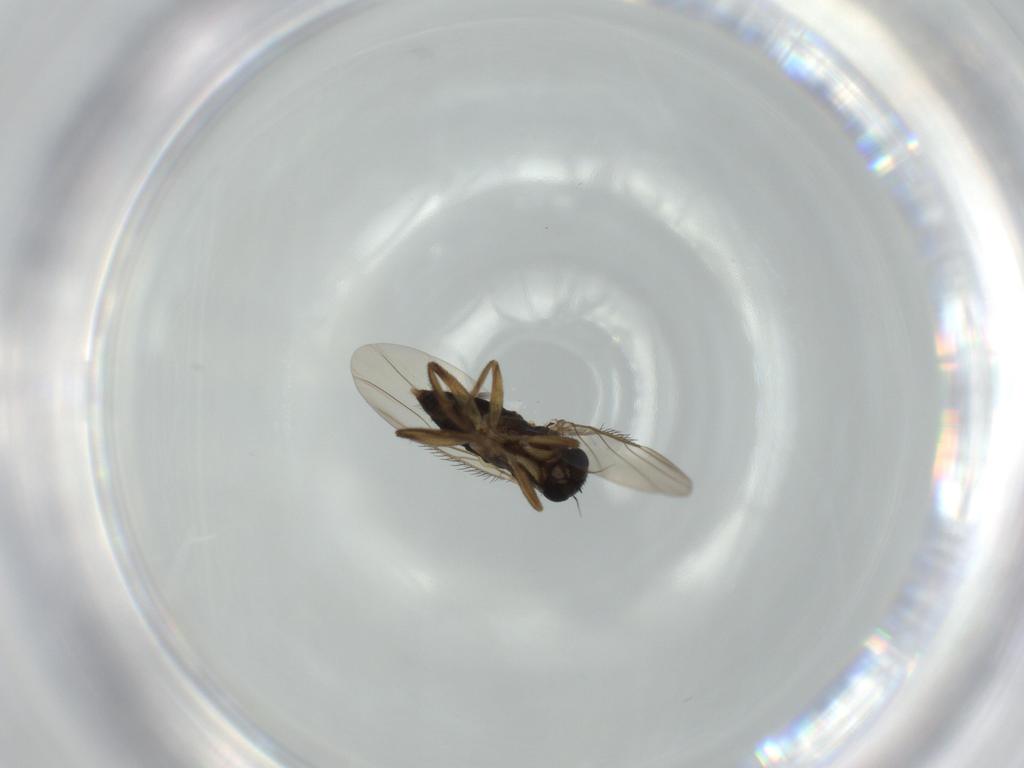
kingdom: Animalia
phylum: Arthropoda
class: Insecta
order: Diptera
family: Phoridae
